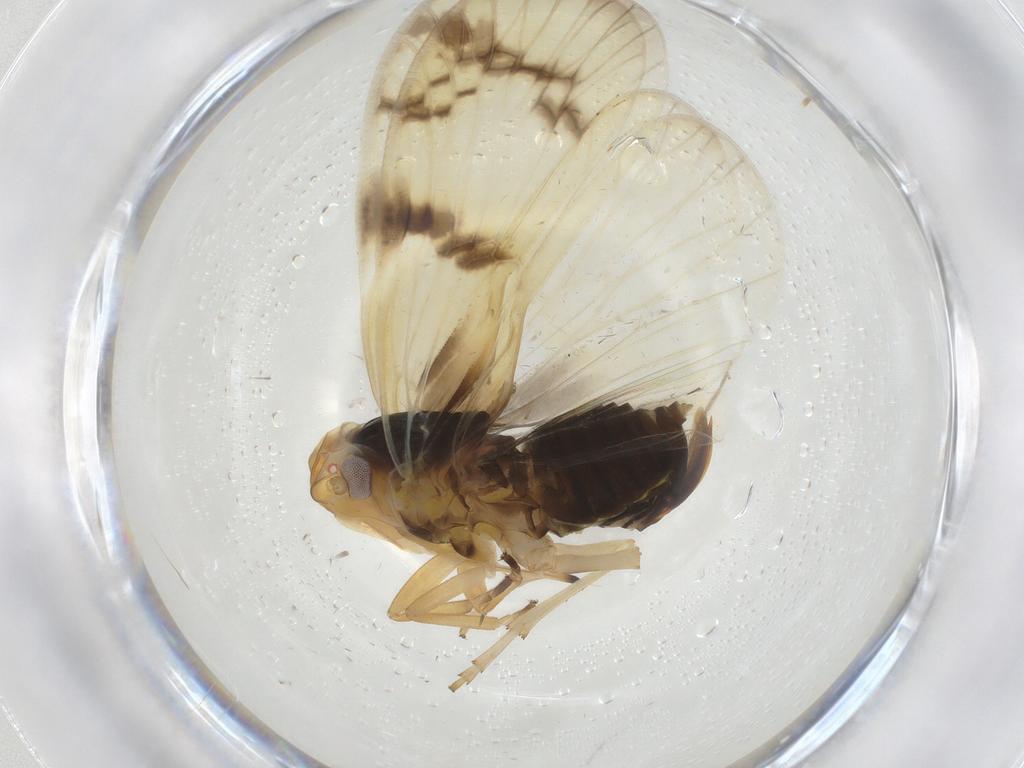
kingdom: Animalia
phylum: Arthropoda
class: Insecta
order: Hemiptera
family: Cixiidae
